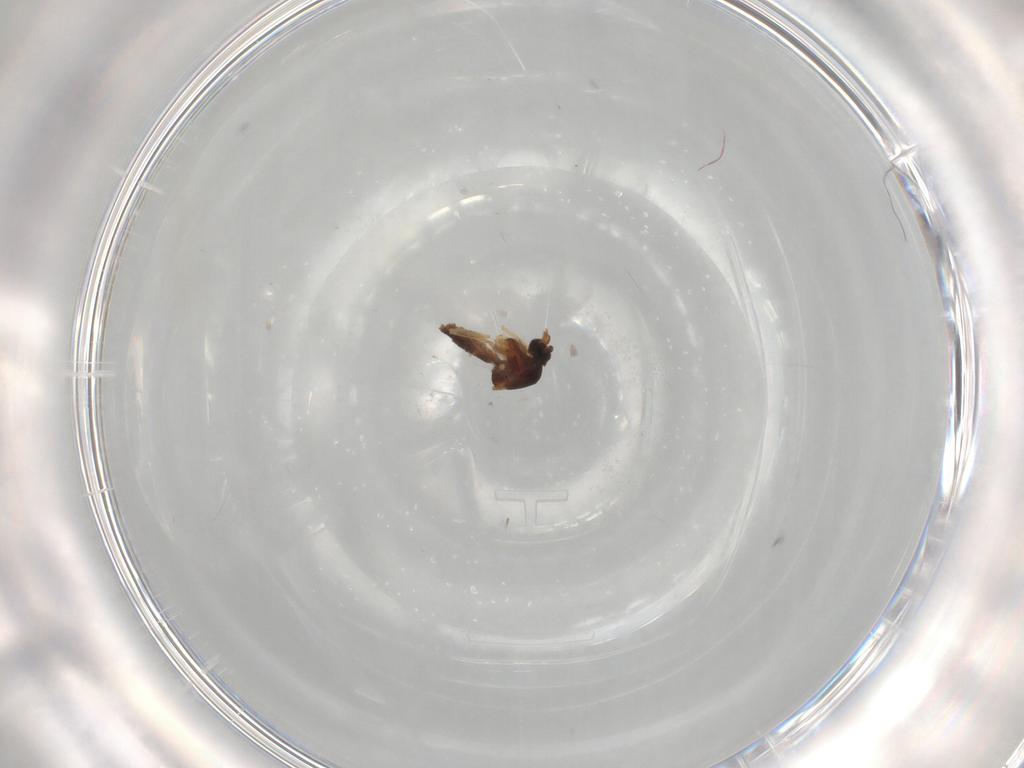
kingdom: Animalia
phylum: Arthropoda
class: Insecta
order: Diptera
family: Ceratopogonidae
